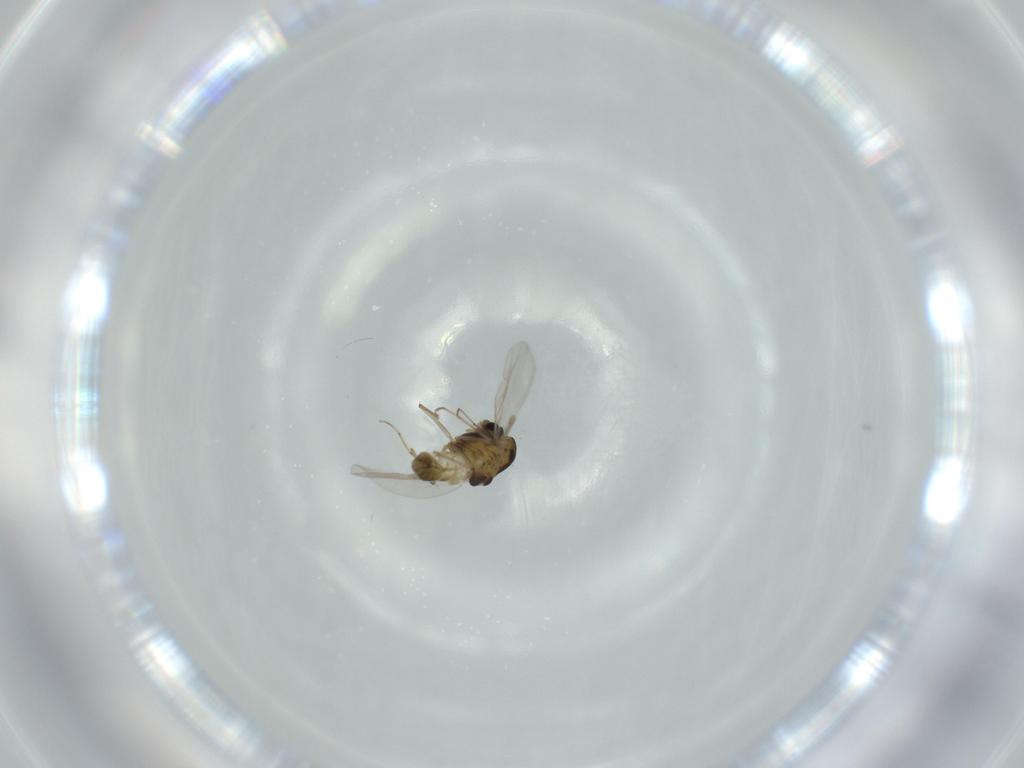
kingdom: Animalia
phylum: Arthropoda
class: Insecta
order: Diptera
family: Chironomidae
